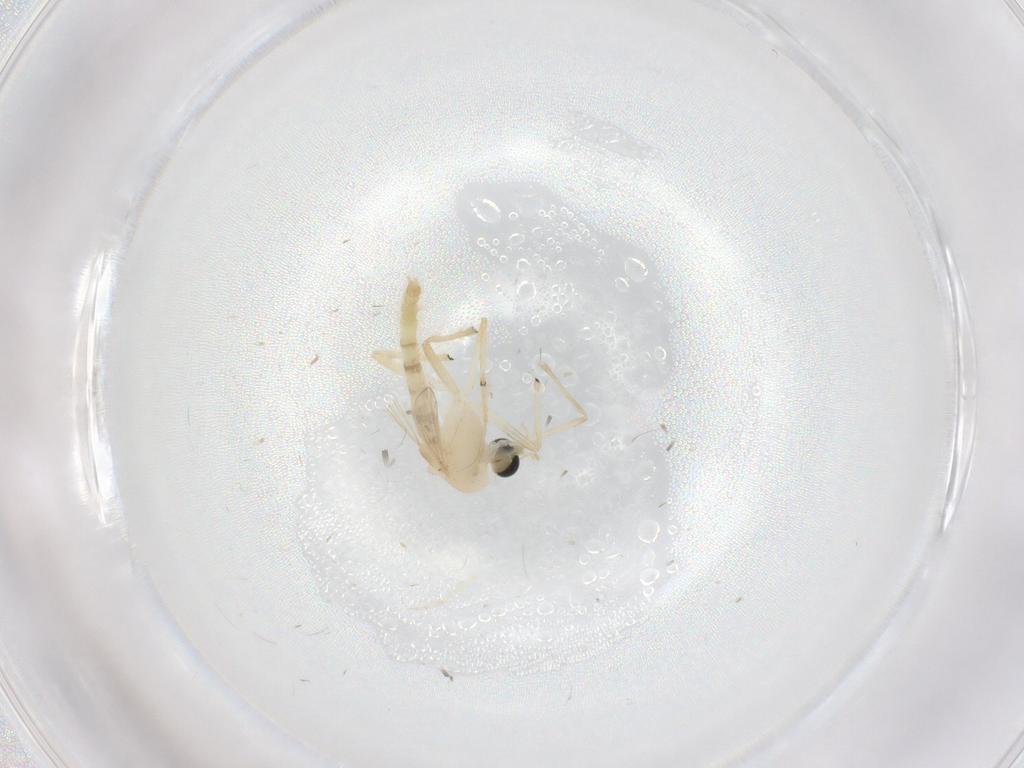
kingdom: Animalia
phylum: Arthropoda
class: Insecta
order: Diptera
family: Chironomidae
